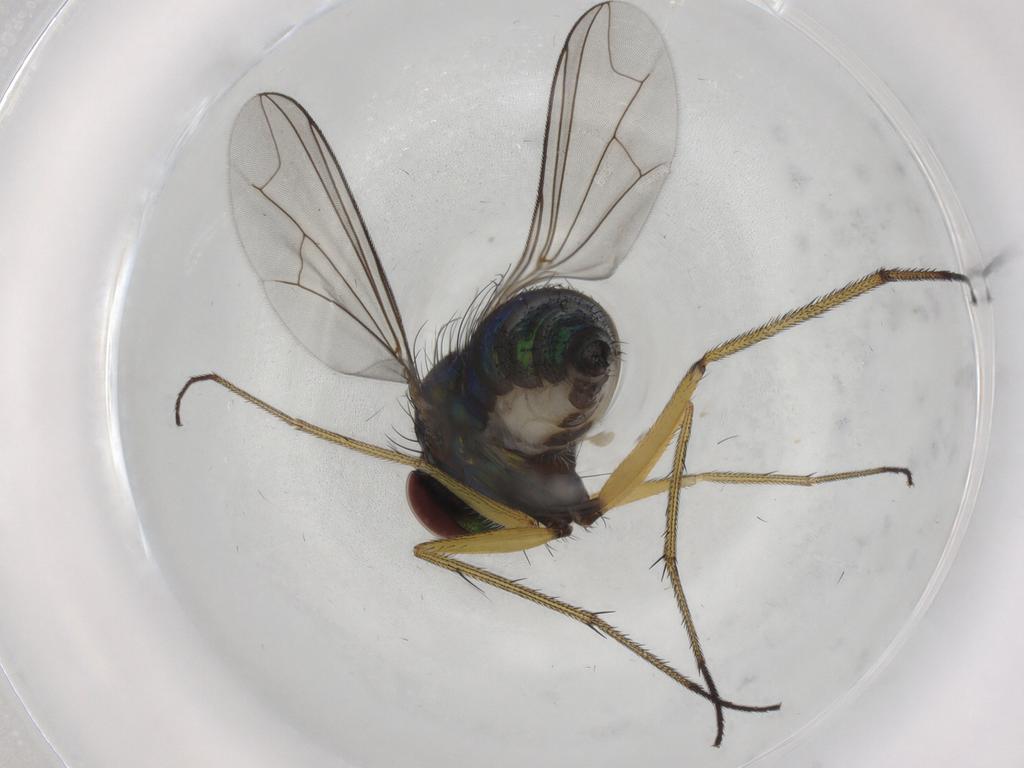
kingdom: Animalia
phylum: Arthropoda
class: Insecta
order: Diptera
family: Dolichopodidae
